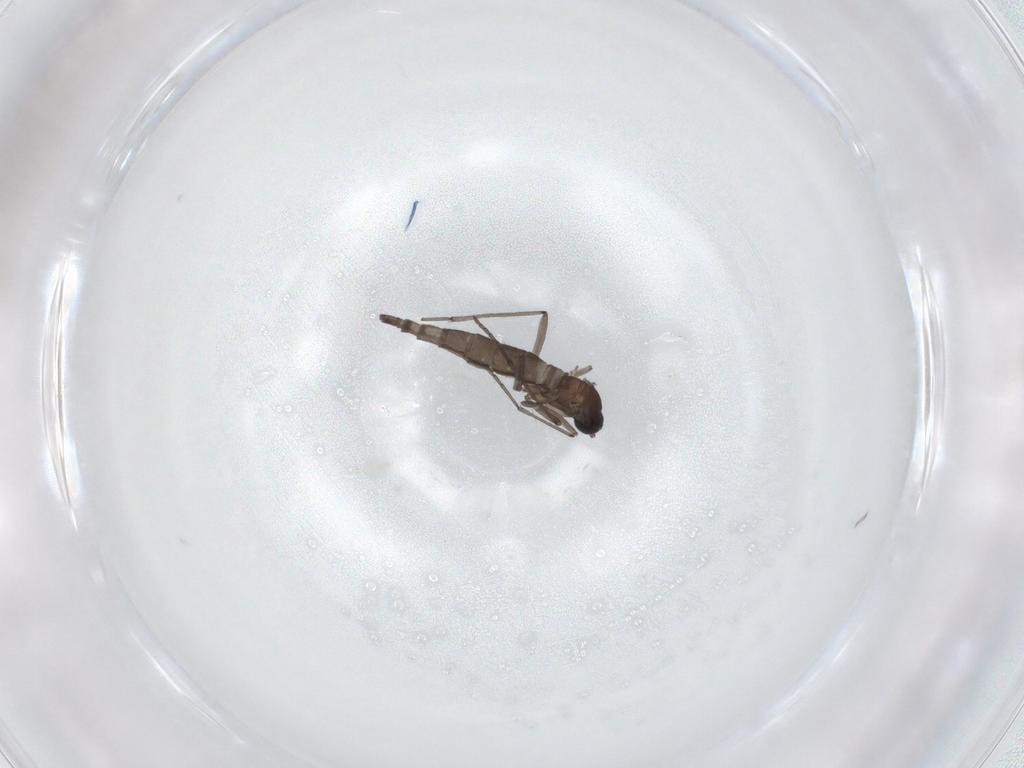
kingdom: Animalia
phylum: Arthropoda
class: Insecta
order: Diptera
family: Sciaridae
